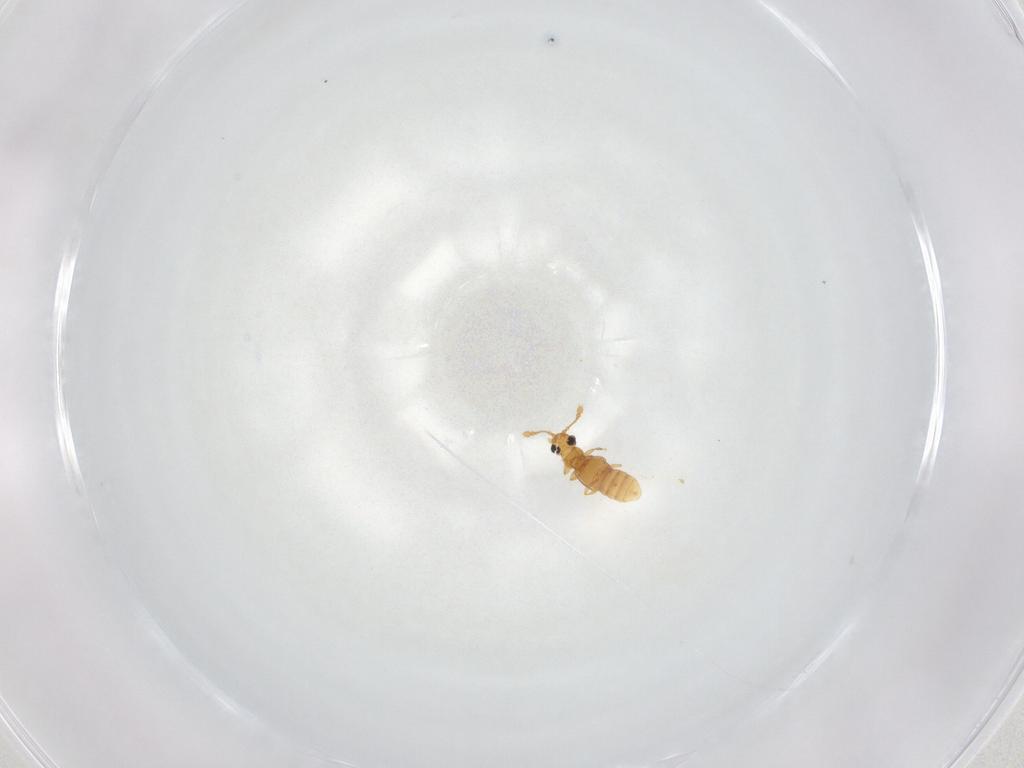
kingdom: Animalia
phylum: Arthropoda
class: Insecta
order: Coleoptera
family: Staphylinidae
